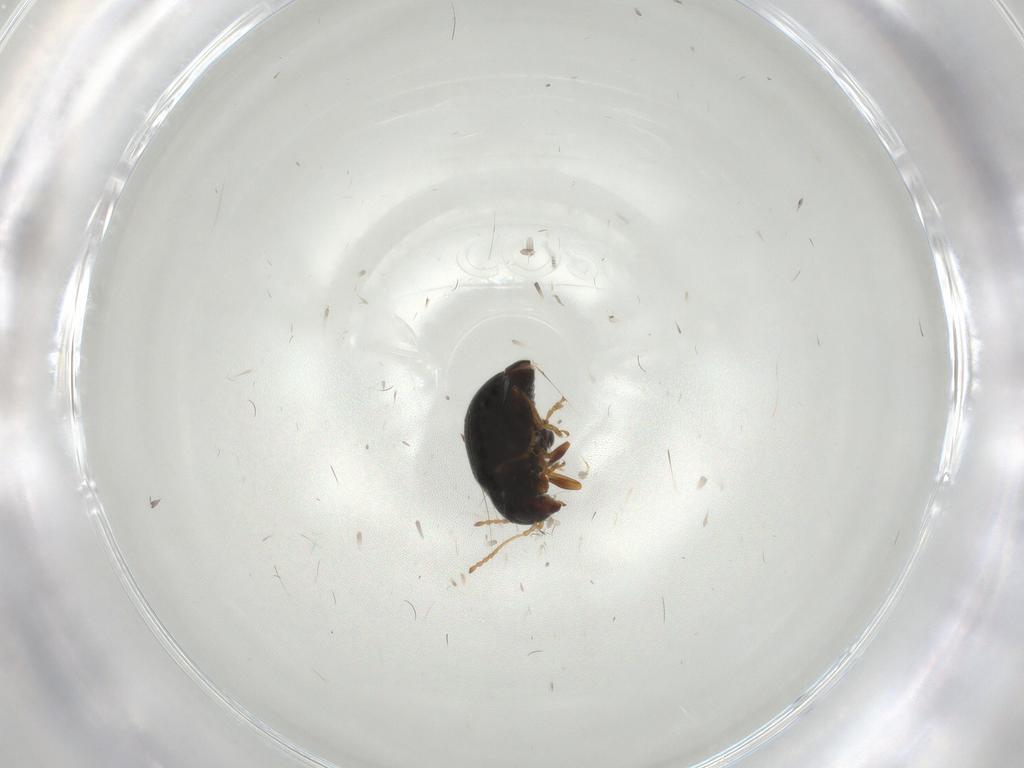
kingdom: Animalia
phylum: Arthropoda
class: Insecta
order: Coleoptera
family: Chrysomelidae
